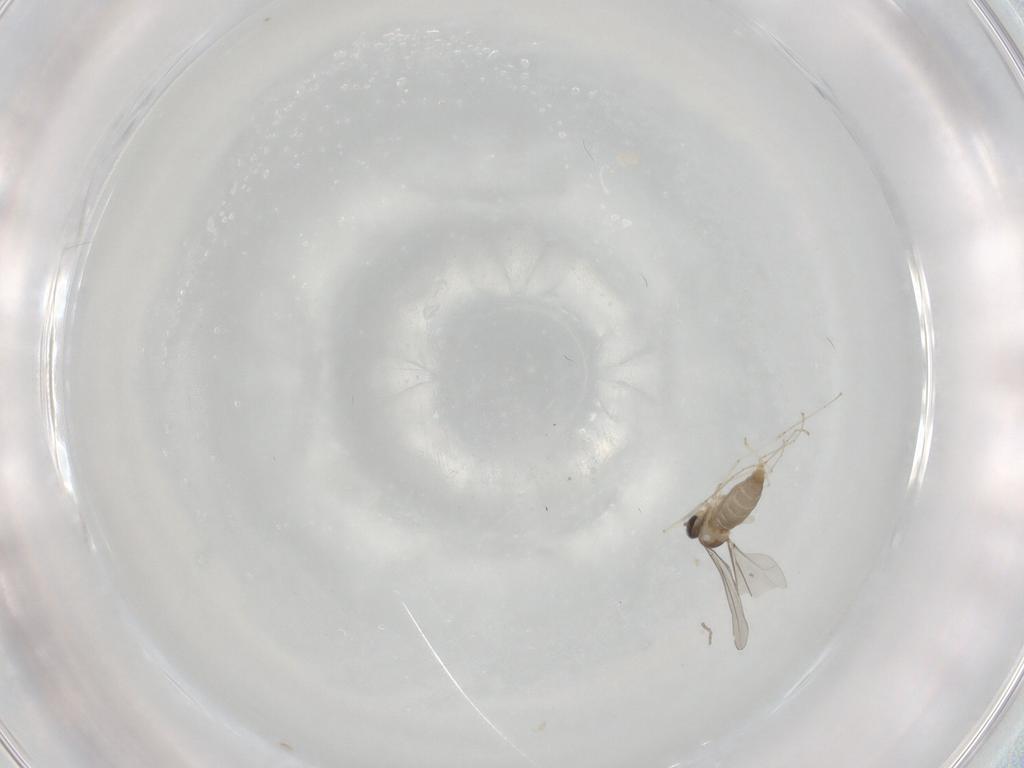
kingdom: Animalia
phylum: Arthropoda
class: Insecta
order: Diptera
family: Cecidomyiidae
